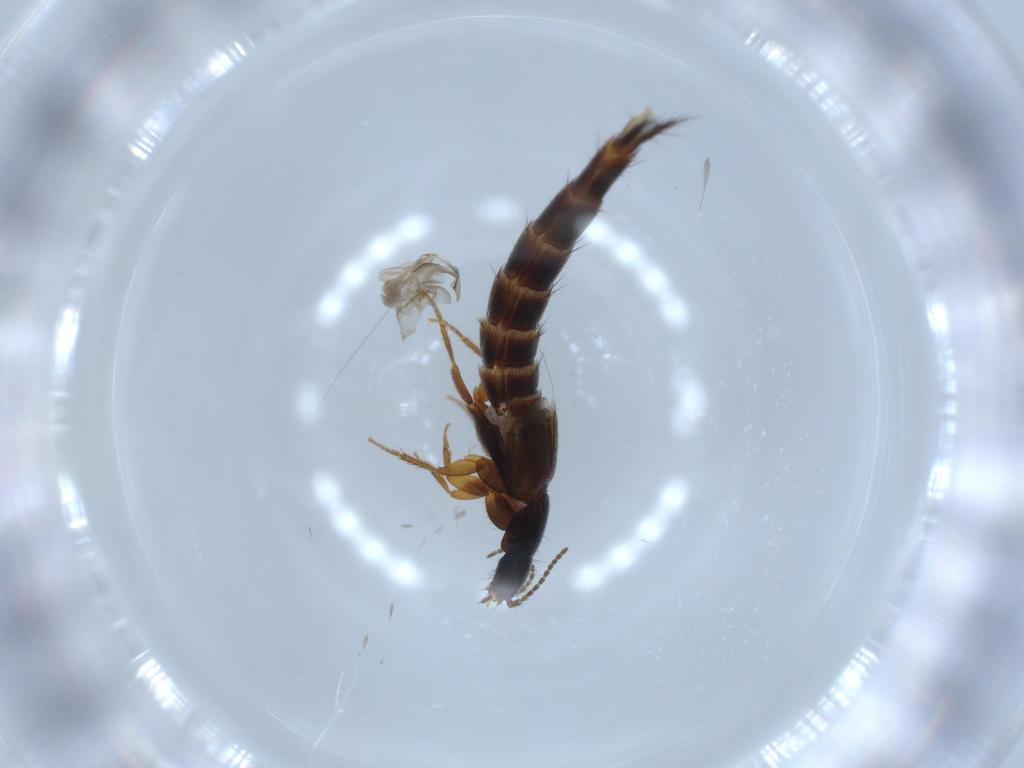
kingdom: Animalia
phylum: Arthropoda
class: Insecta
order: Coleoptera
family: Staphylinidae
